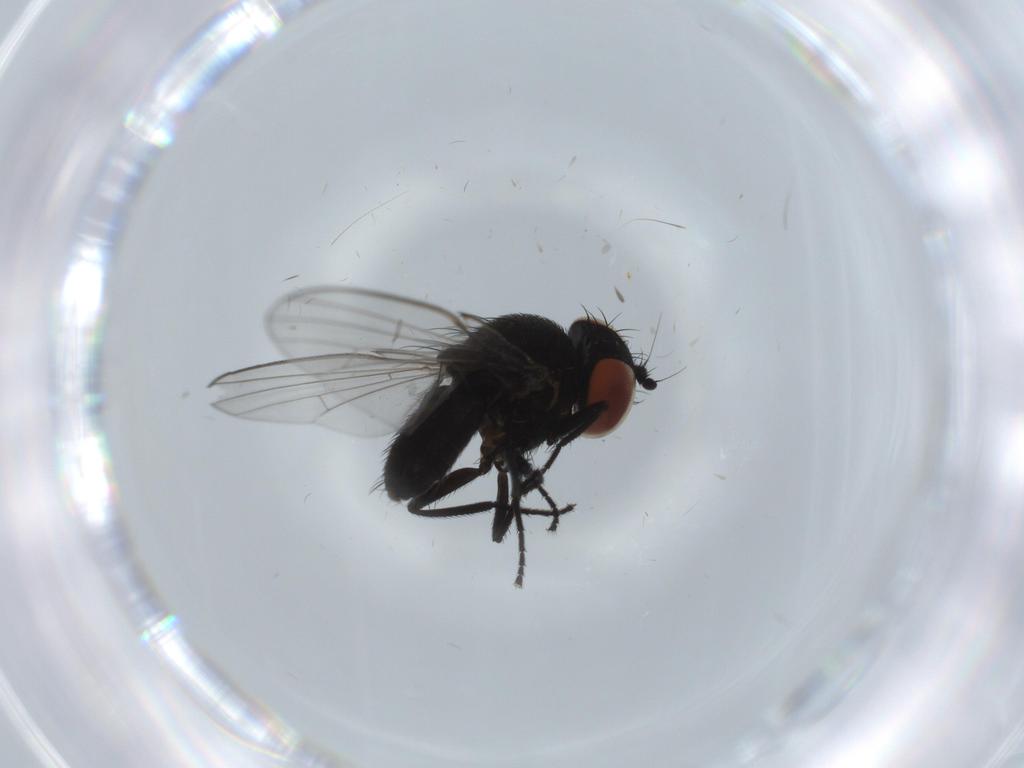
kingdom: Animalia
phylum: Arthropoda
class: Insecta
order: Diptera
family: Milichiidae
